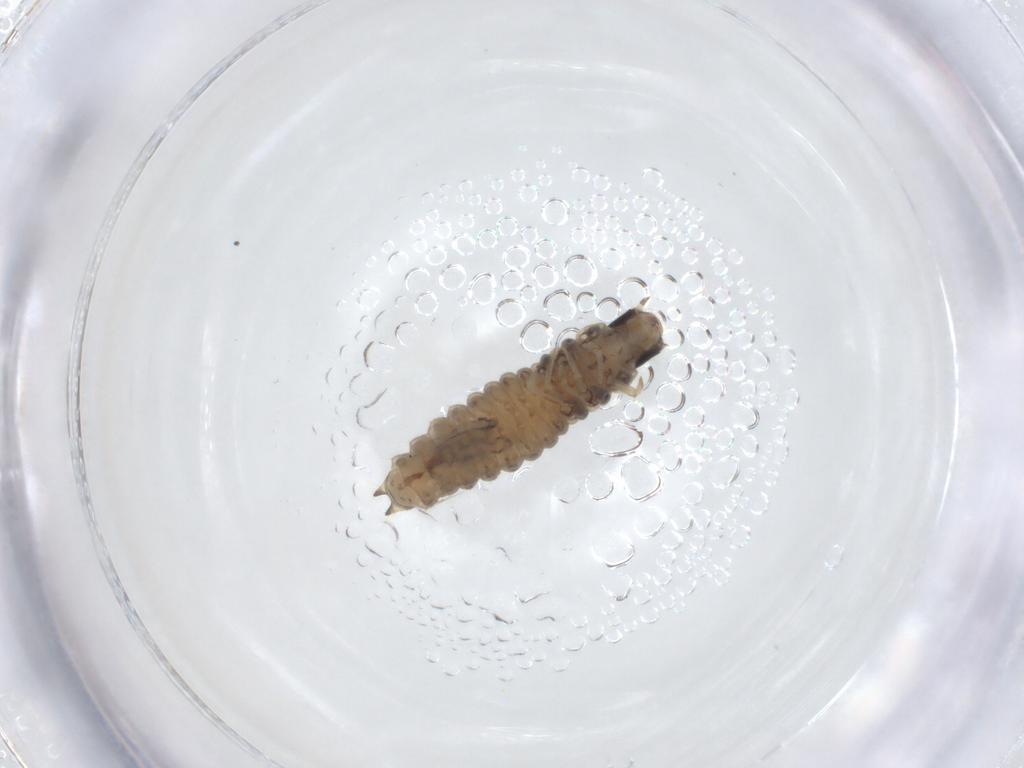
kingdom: Animalia
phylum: Arthropoda
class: Insecta
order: Coleoptera
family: Melyridae
